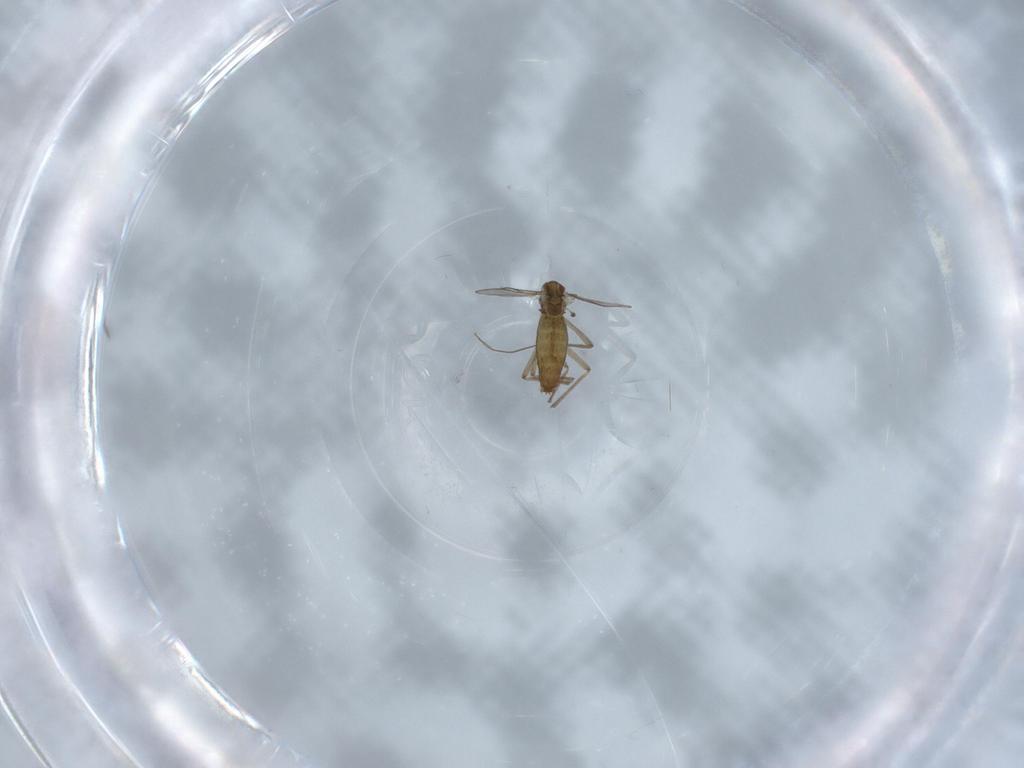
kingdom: Animalia
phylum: Arthropoda
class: Insecta
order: Diptera
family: Chironomidae
